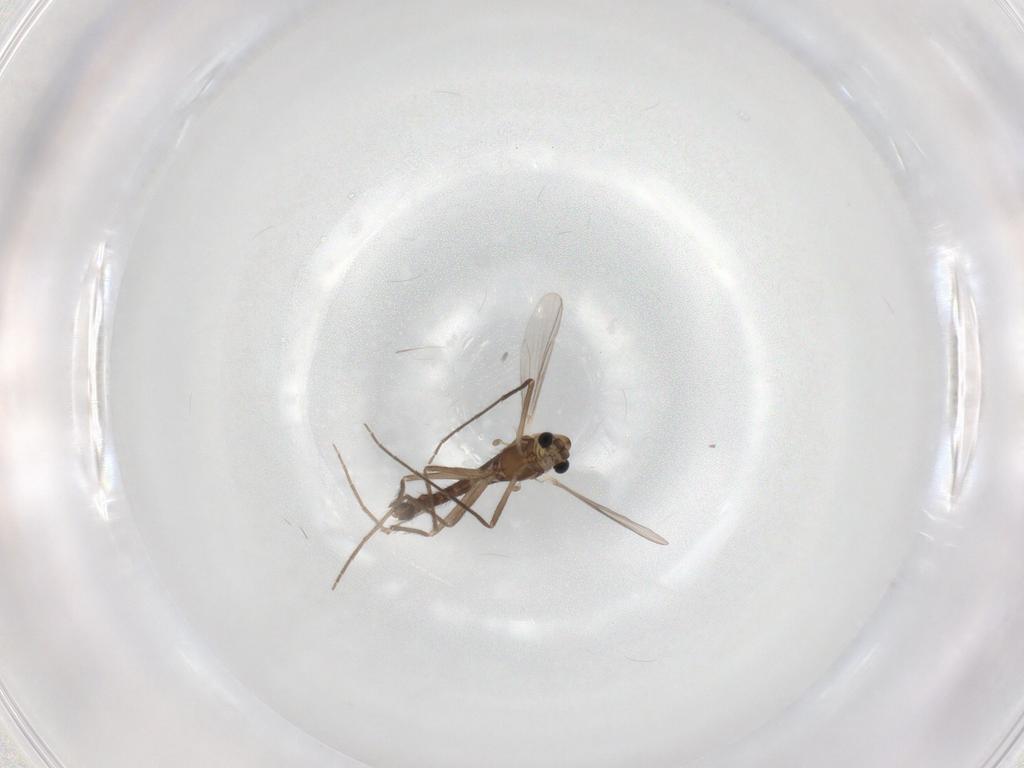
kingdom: Animalia
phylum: Arthropoda
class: Insecta
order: Diptera
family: Chironomidae
